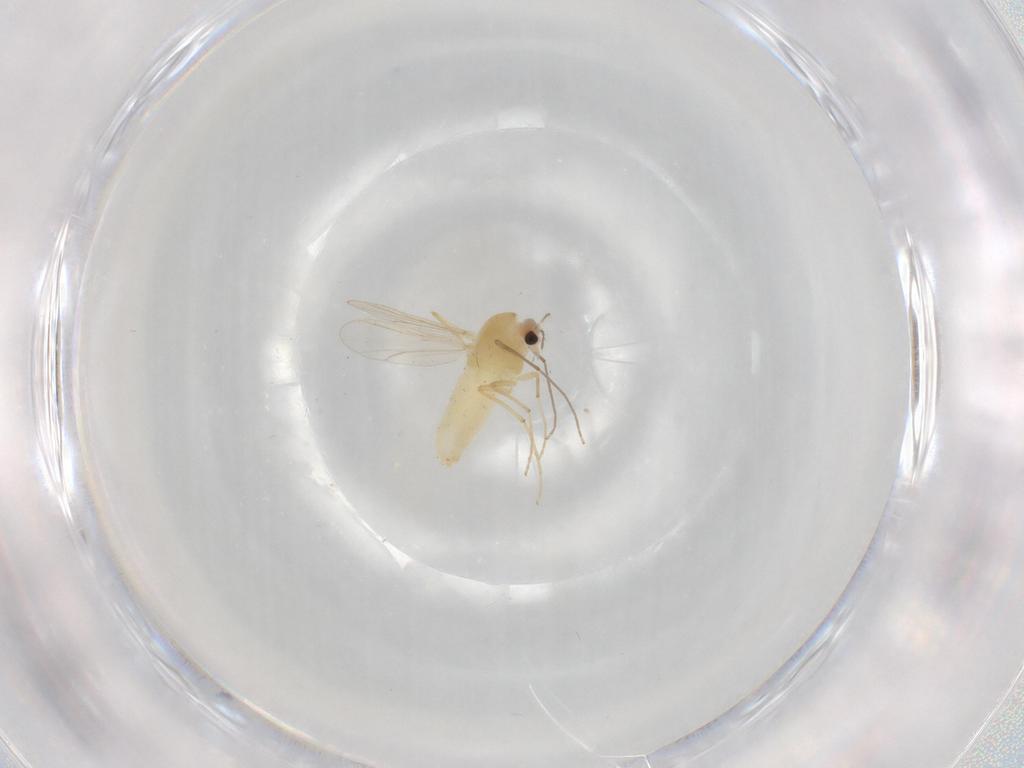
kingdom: Animalia
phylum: Arthropoda
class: Insecta
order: Diptera
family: Chironomidae
